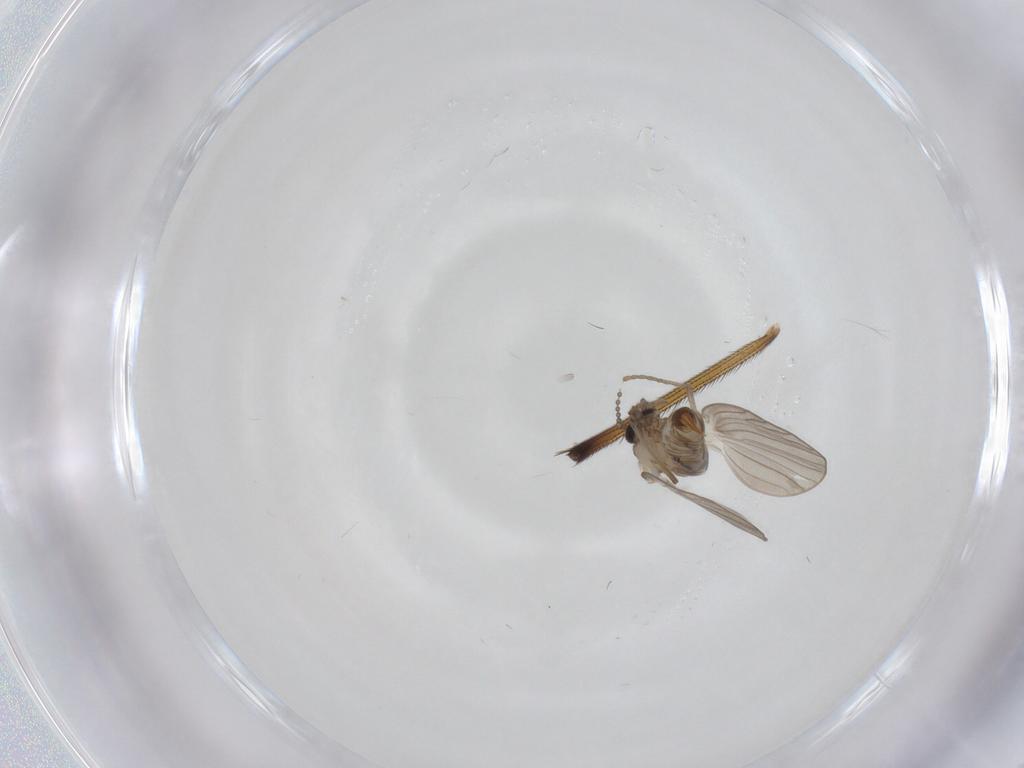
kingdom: Animalia
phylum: Arthropoda
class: Insecta
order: Diptera
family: Psychodidae
